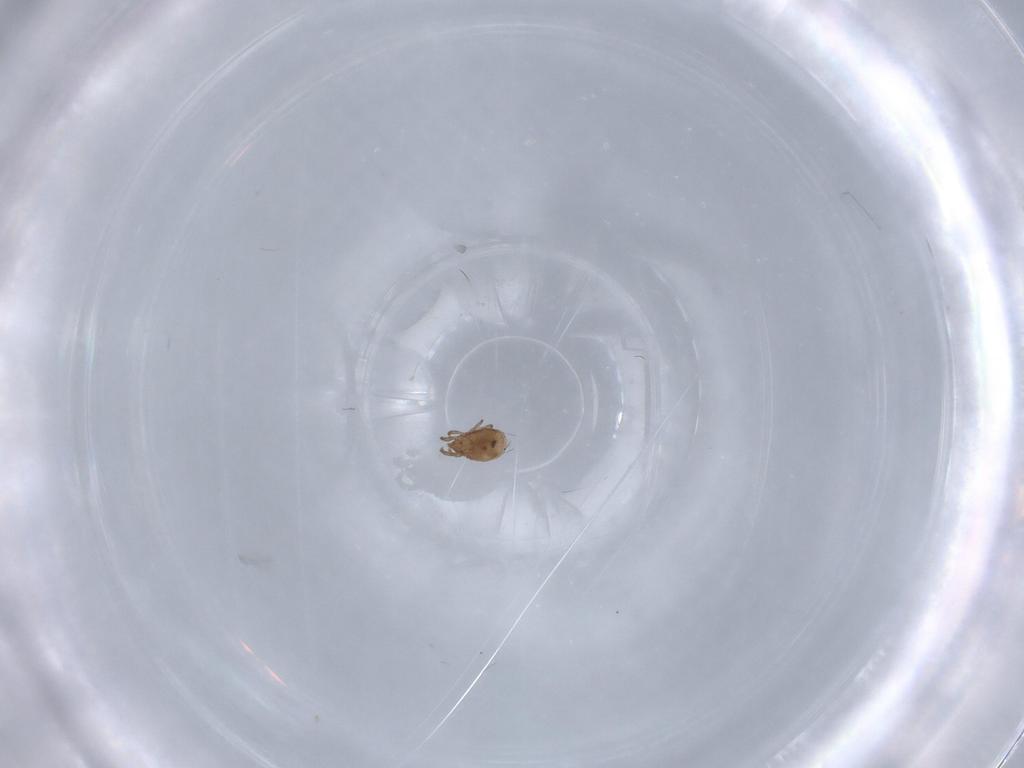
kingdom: Animalia
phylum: Arthropoda
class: Arachnida
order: Sarcoptiformes
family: Ceratozetidae
